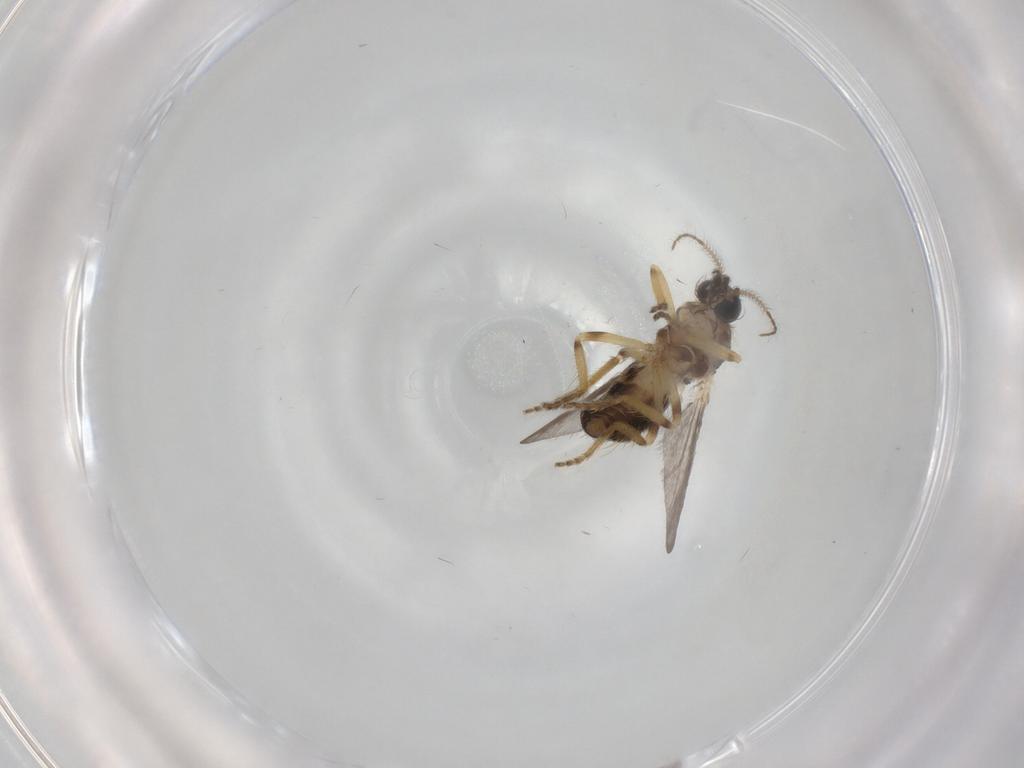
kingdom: Animalia
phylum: Arthropoda
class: Insecta
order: Diptera
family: Ceratopogonidae
